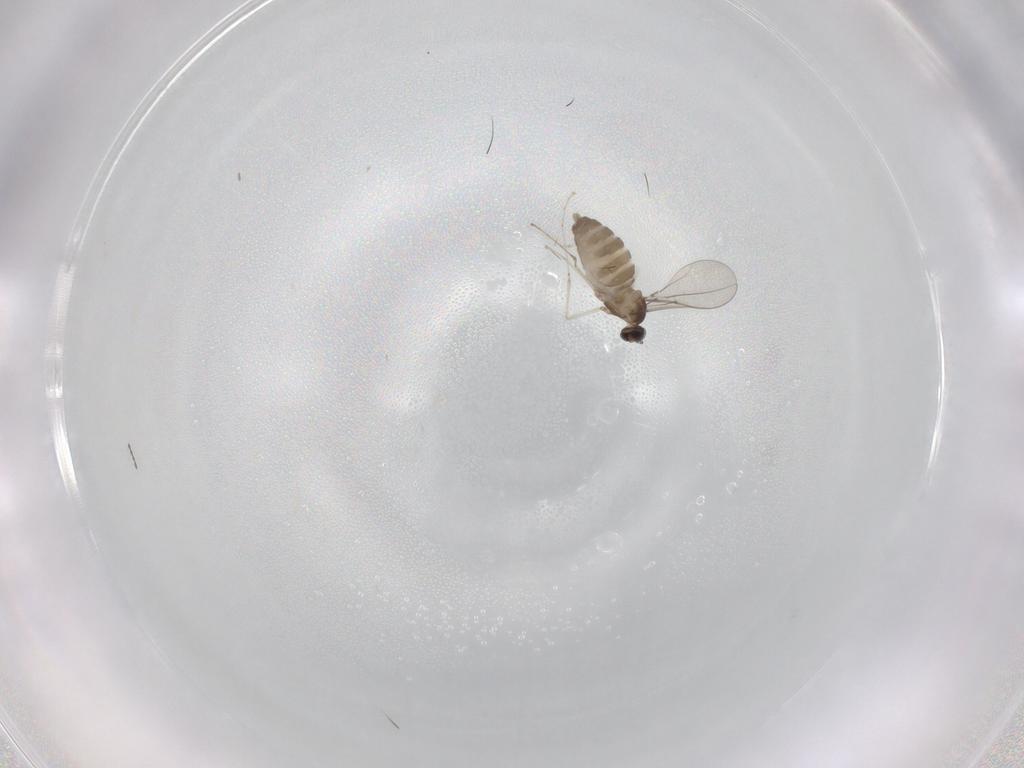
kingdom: Animalia
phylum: Arthropoda
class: Insecta
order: Diptera
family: Cecidomyiidae
